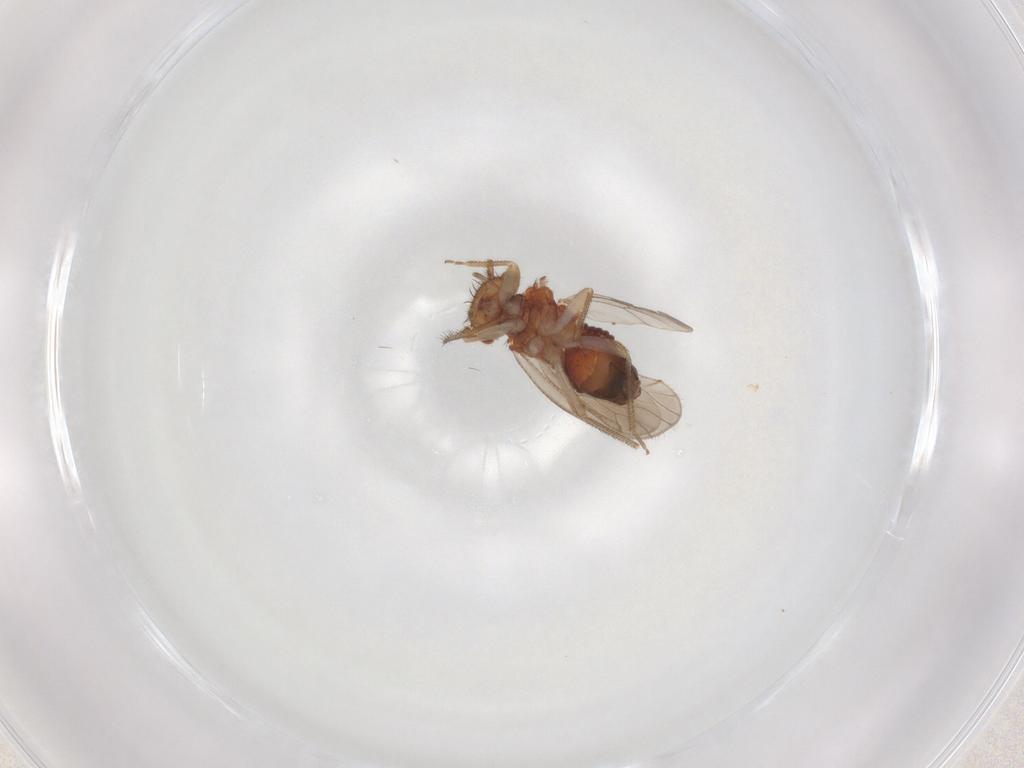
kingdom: Animalia
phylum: Arthropoda
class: Insecta
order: Psocodea
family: Ectopsocidae
